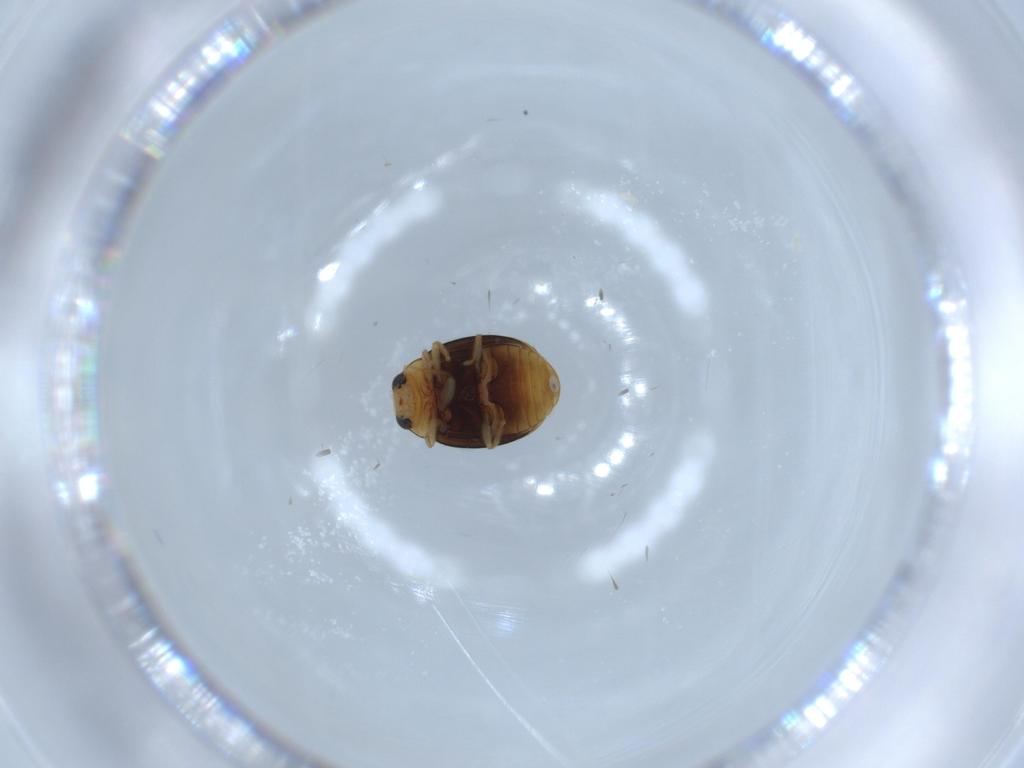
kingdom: Animalia
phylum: Arthropoda
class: Insecta
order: Coleoptera
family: Coccinellidae
